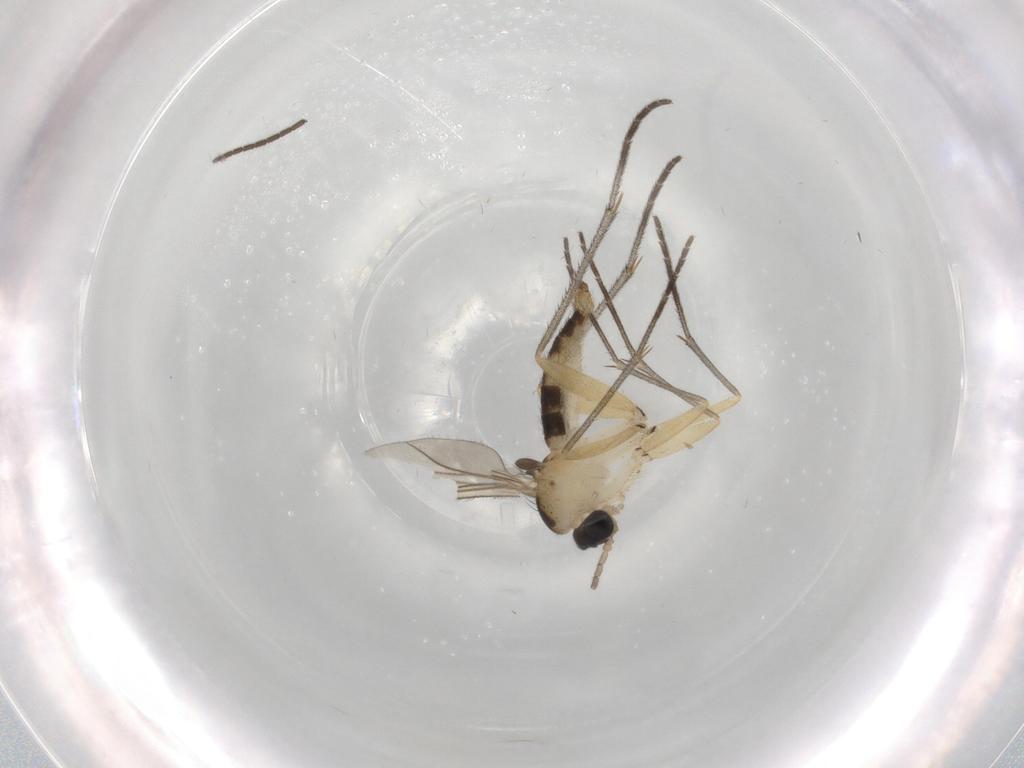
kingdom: Animalia
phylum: Arthropoda
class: Insecta
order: Diptera
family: Sciaridae
